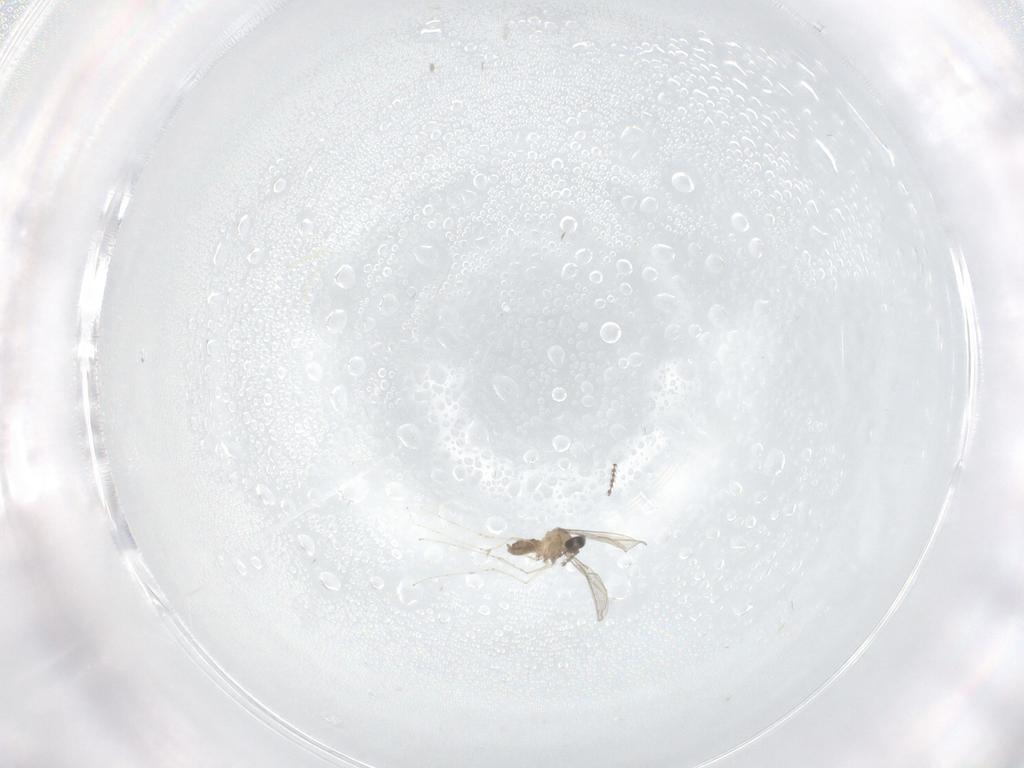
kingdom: Animalia
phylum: Arthropoda
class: Insecta
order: Diptera
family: Cecidomyiidae
